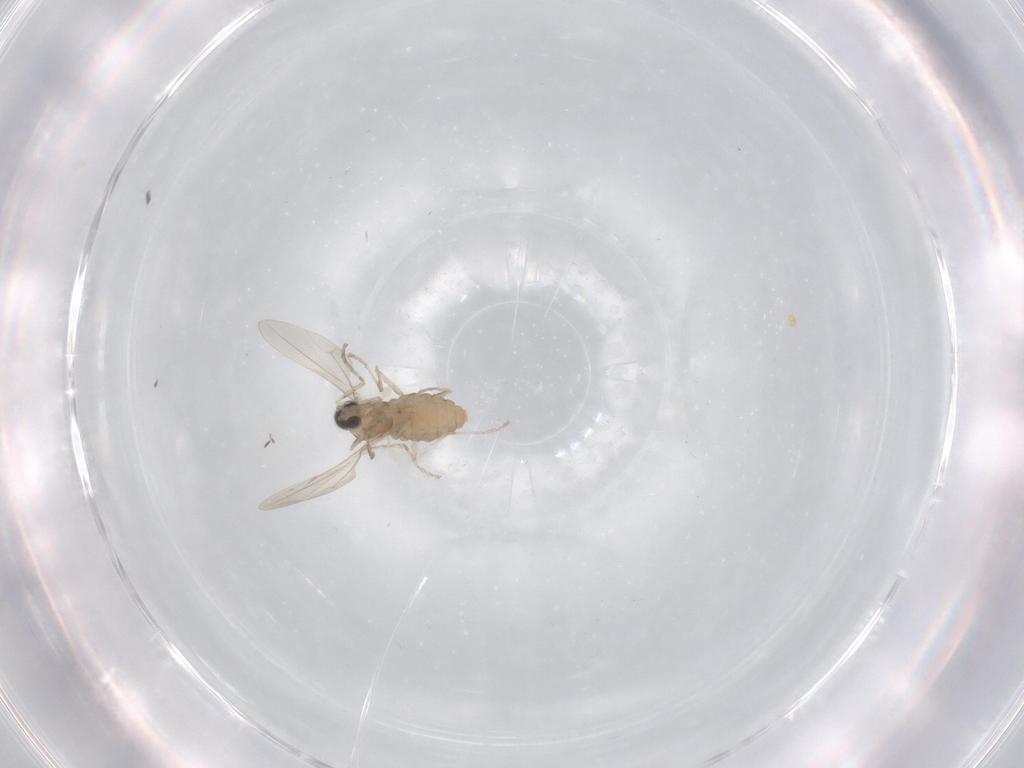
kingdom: Animalia
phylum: Arthropoda
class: Insecta
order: Diptera
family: Cecidomyiidae
